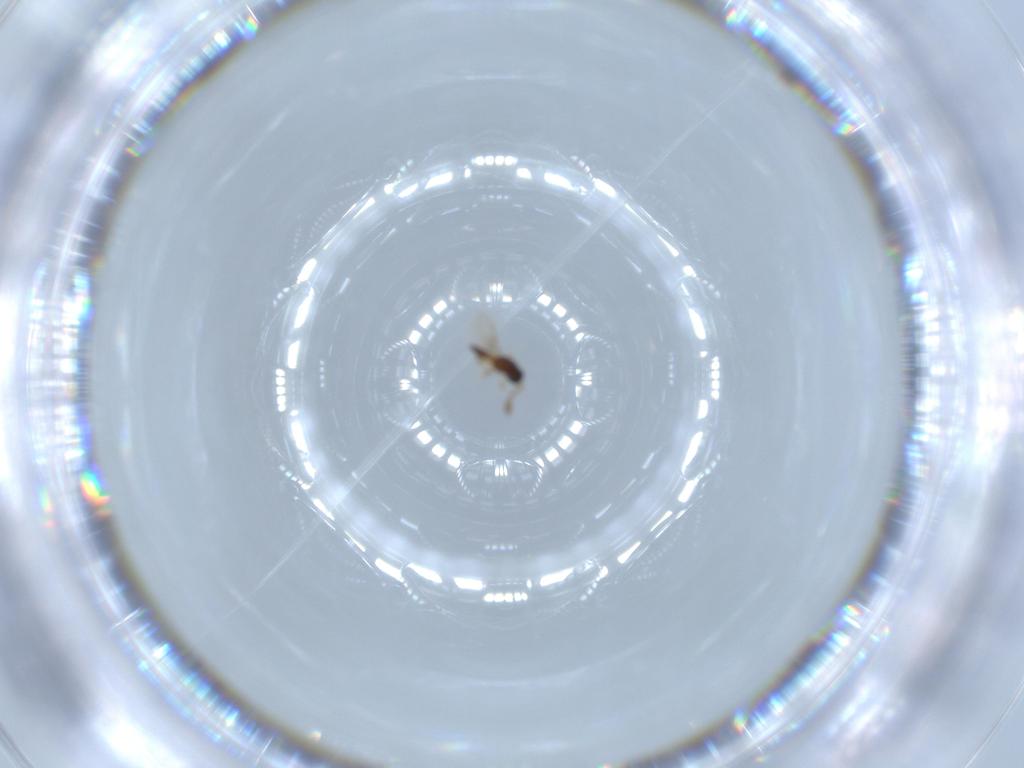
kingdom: Animalia
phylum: Arthropoda
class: Insecta
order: Hymenoptera
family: Scelionidae
